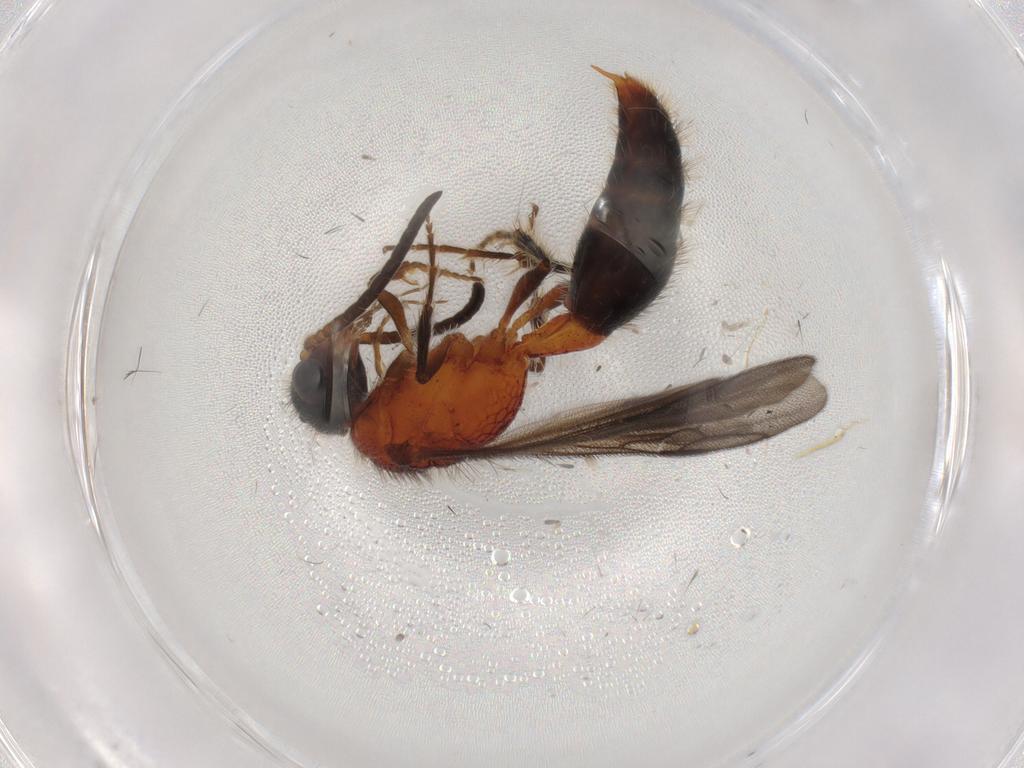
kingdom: Animalia
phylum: Arthropoda
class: Insecta
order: Hymenoptera
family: Mutillidae
